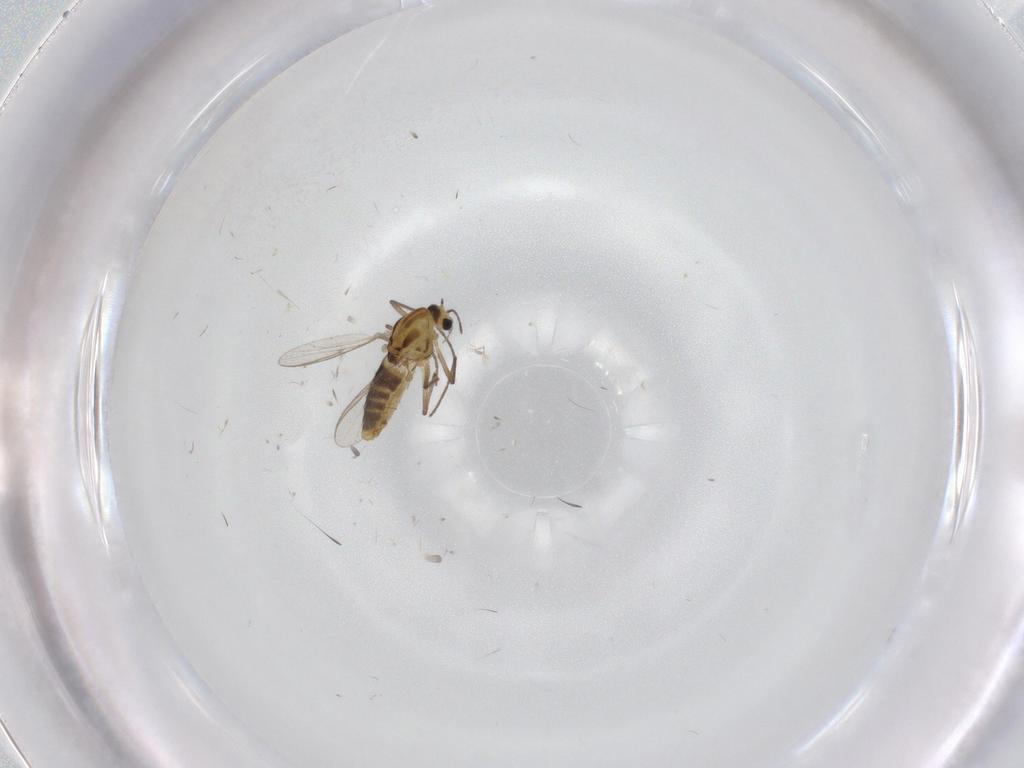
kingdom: Animalia
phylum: Arthropoda
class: Insecta
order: Diptera
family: Chironomidae
